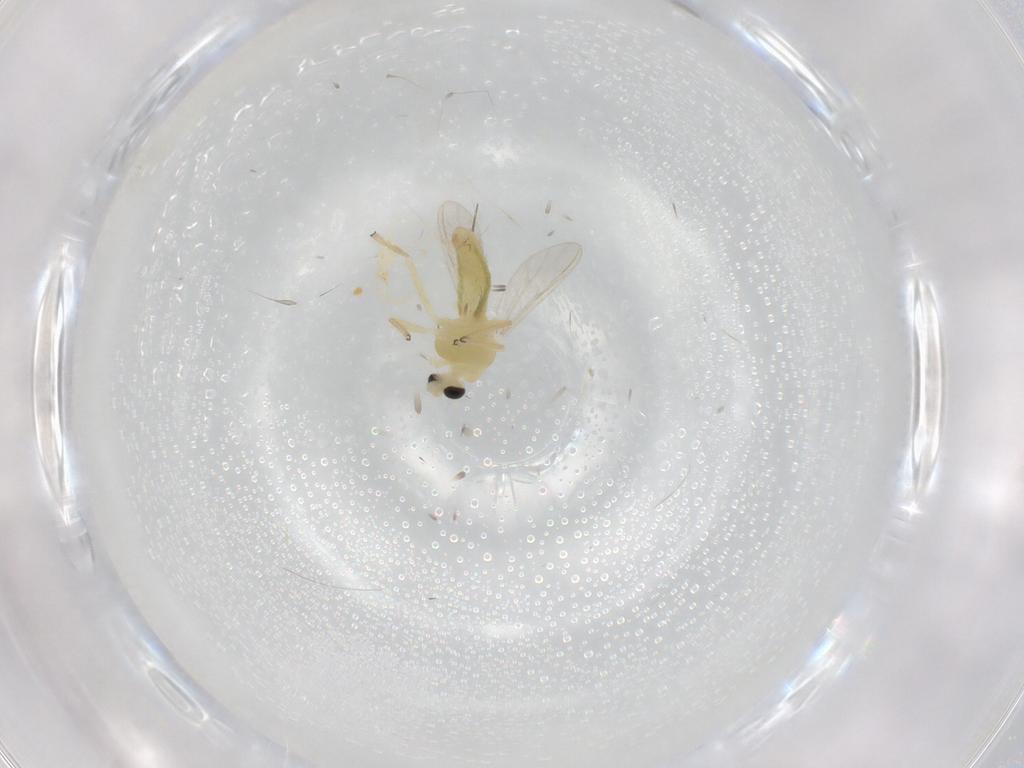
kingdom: Animalia
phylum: Arthropoda
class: Insecta
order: Diptera
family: Chironomidae
